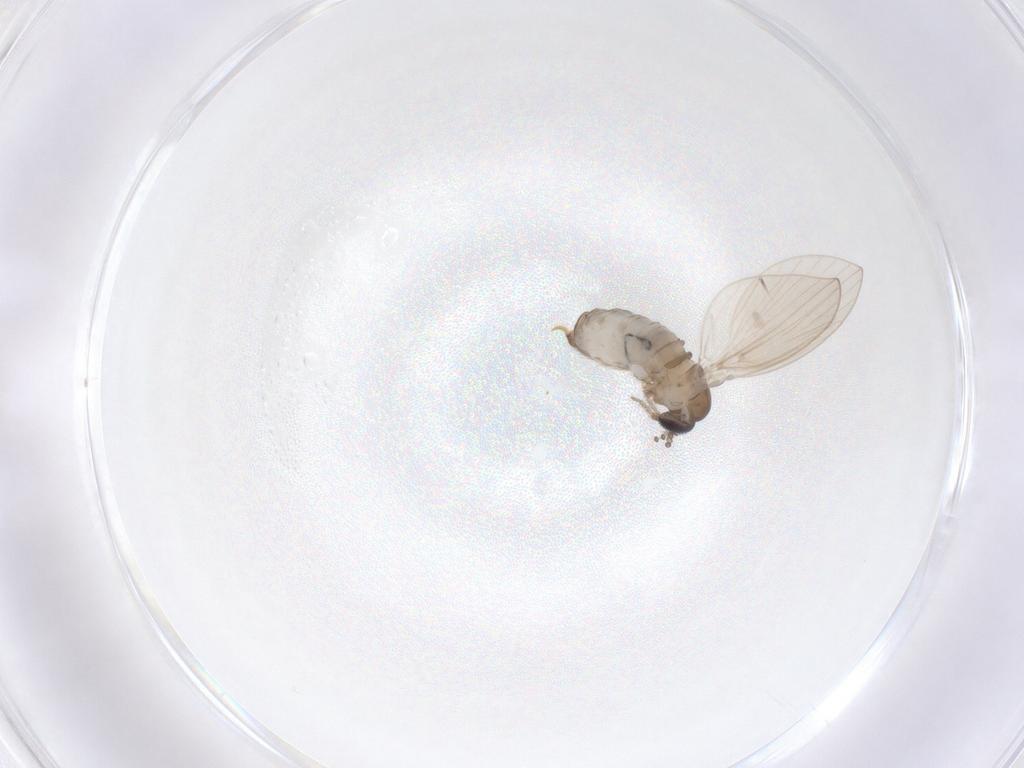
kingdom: Animalia
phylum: Arthropoda
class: Insecta
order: Diptera
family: Psychodidae
